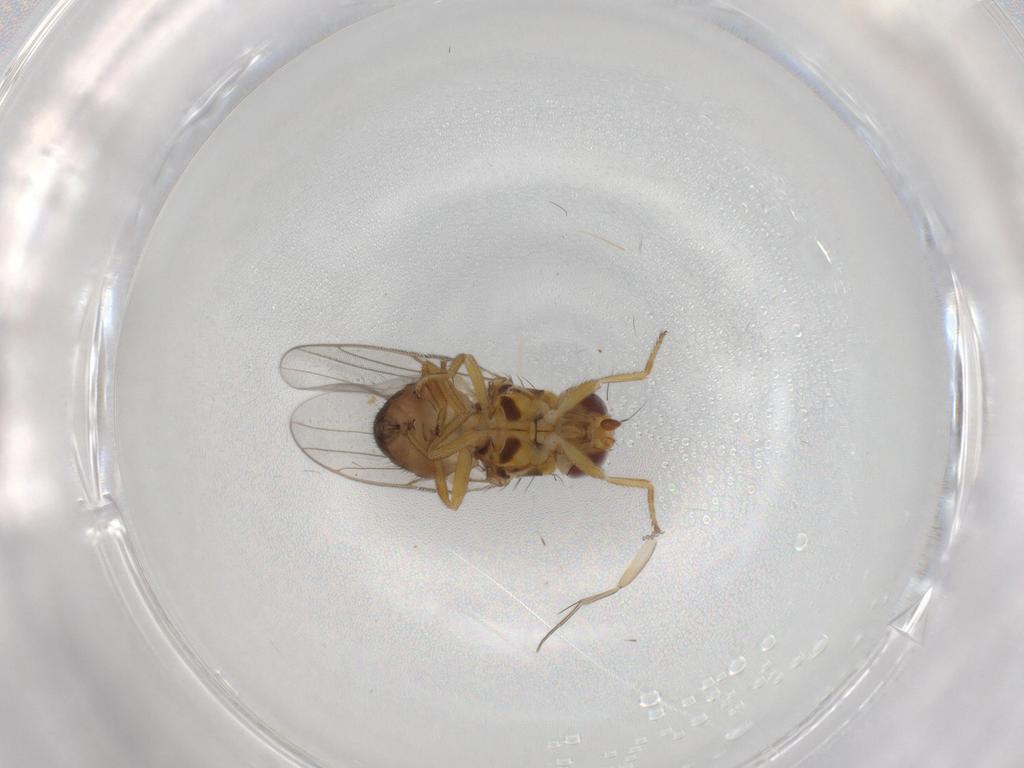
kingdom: Animalia
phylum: Arthropoda
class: Insecta
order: Diptera
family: Chloropidae
